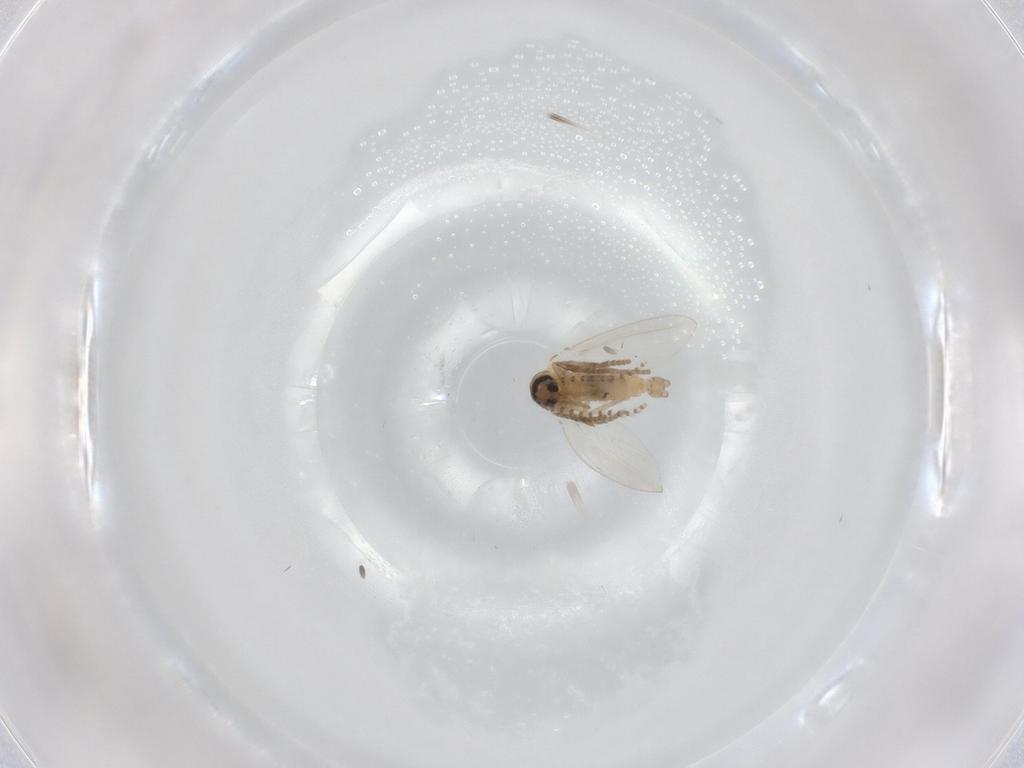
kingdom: Animalia
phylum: Arthropoda
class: Insecta
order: Diptera
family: Psychodidae
